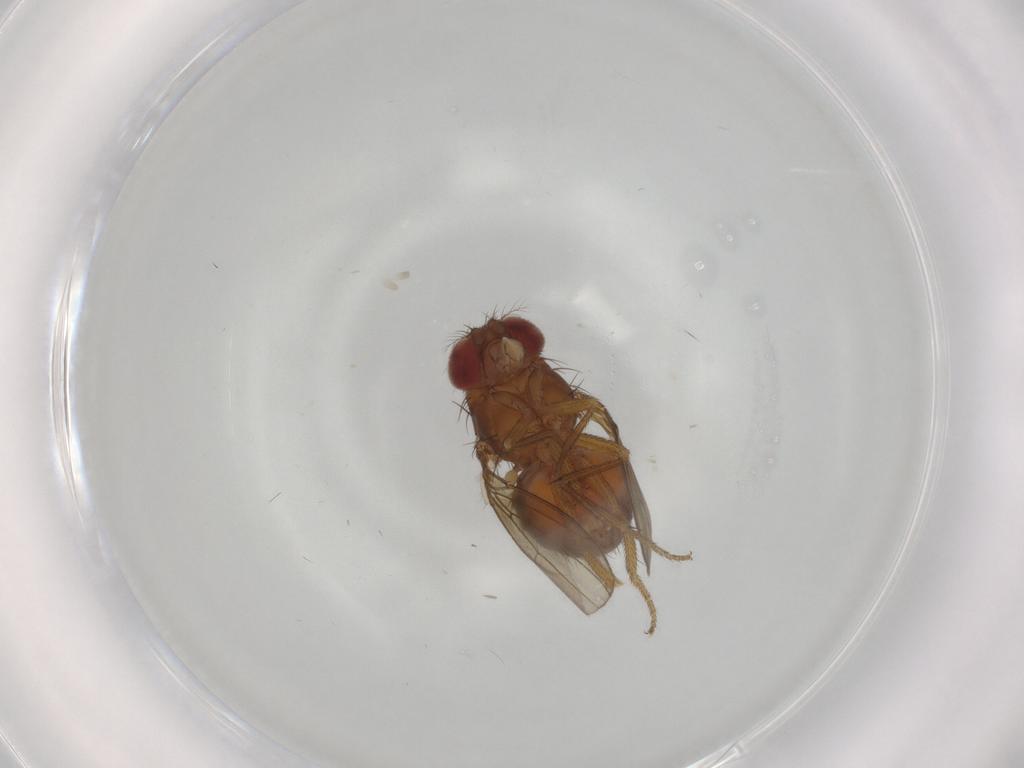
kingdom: Animalia
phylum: Arthropoda
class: Insecta
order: Diptera
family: Drosophilidae
